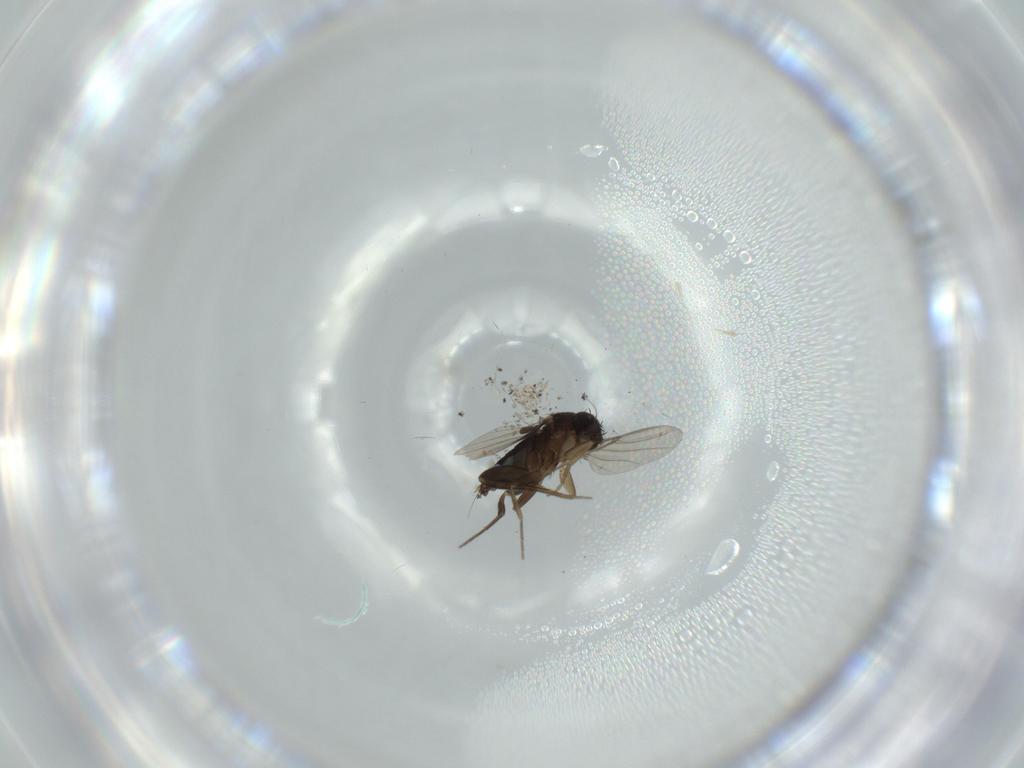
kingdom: Animalia
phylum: Arthropoda
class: Insecta
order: Diptera
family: Phoridae
